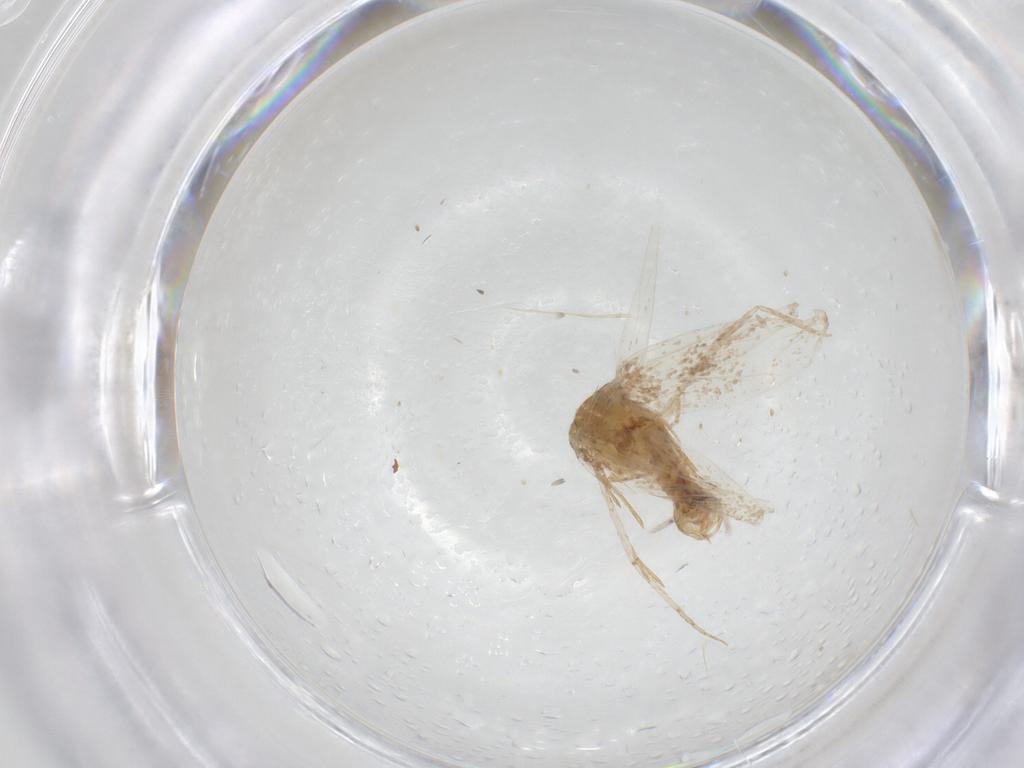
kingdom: Animalia
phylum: Arthropoda
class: Insecta
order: Lepidoptera
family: Gelechiidae
